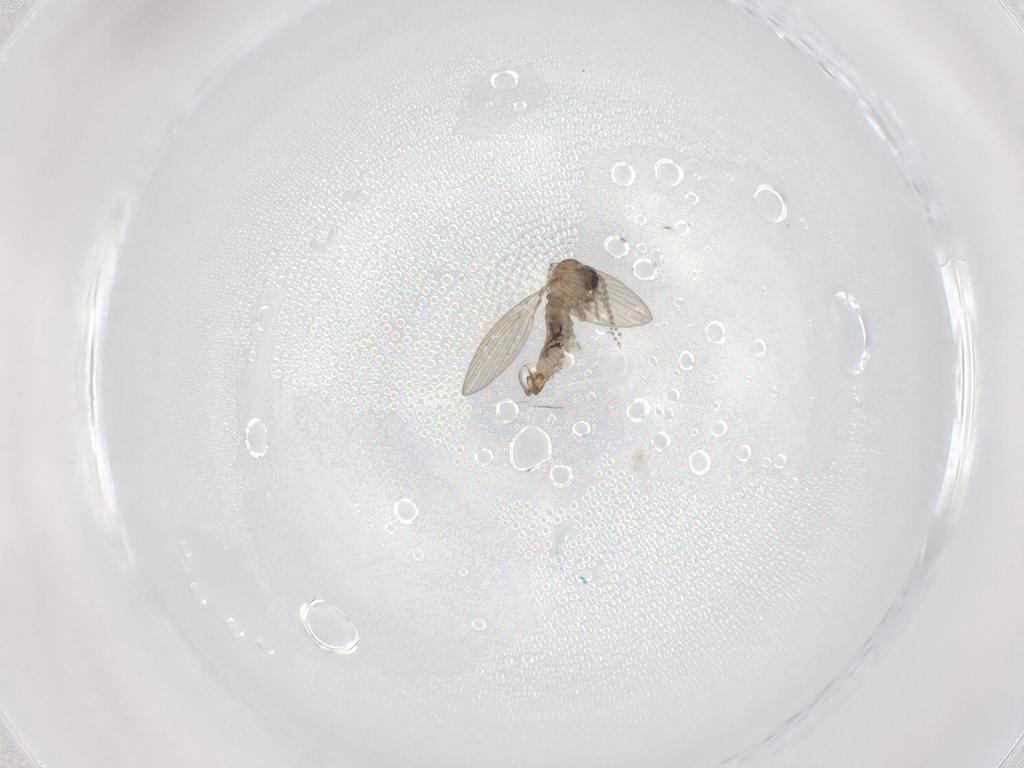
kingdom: Animalia
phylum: Arthropoda
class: Insecta
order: Diptera
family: Psychodidae
